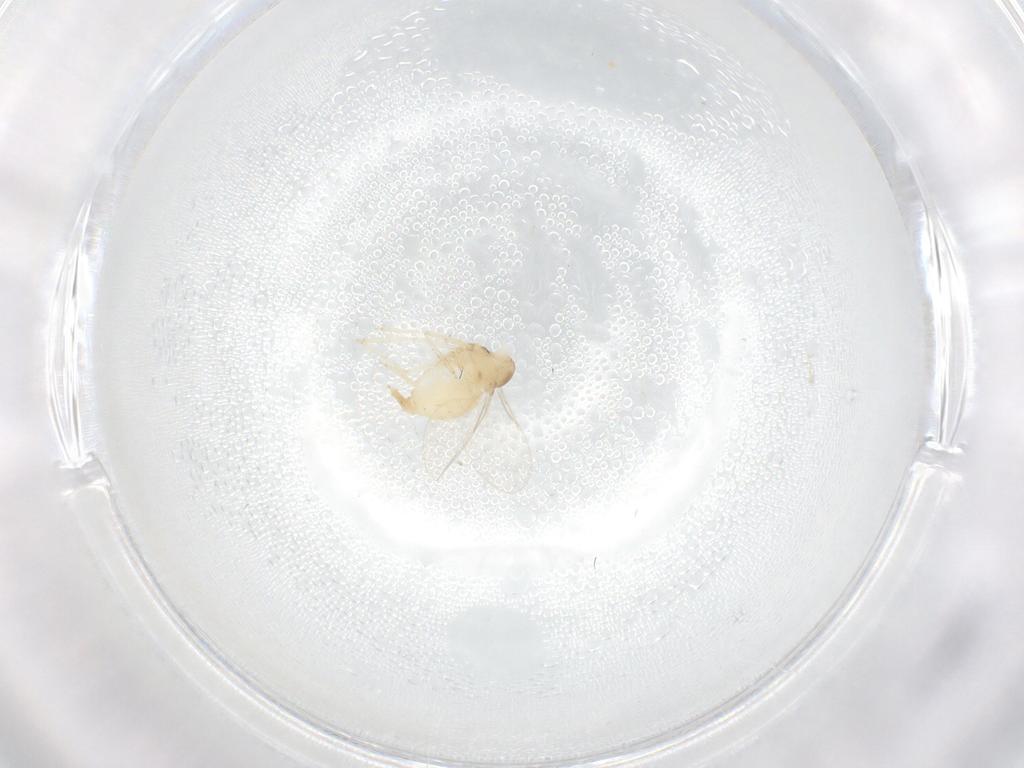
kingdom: Animalia
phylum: Arthropoda
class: Insecta
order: Diptera
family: Cecidomyiidae
